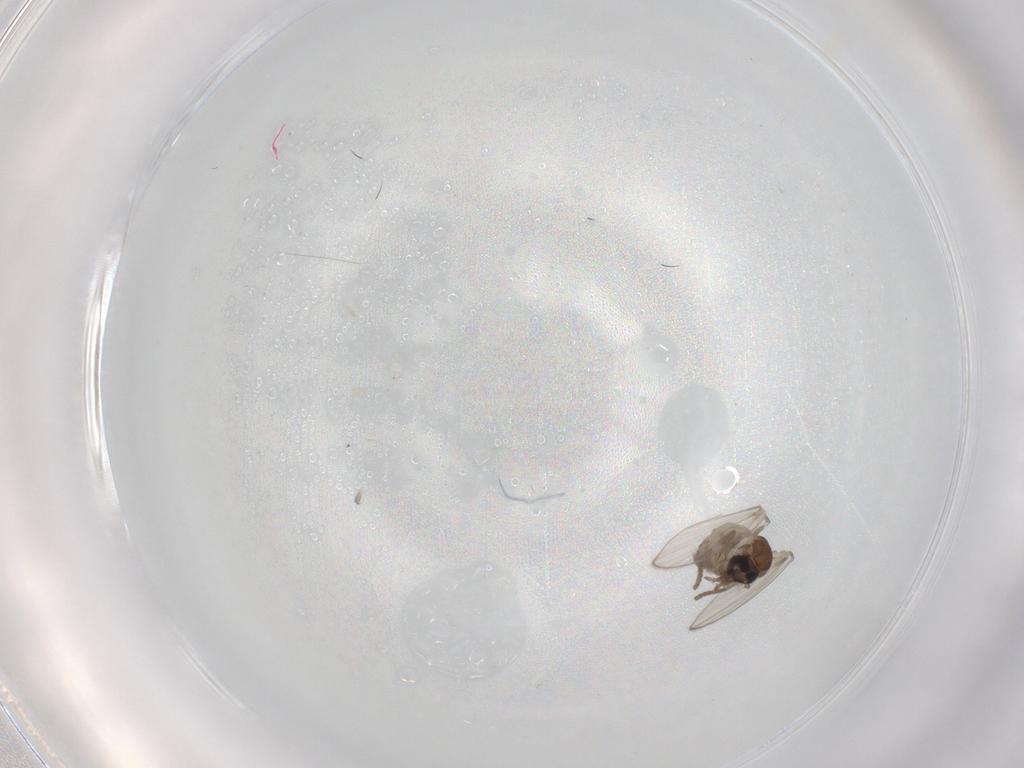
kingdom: Animalia
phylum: Arthropoda
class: Insecta
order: Diptera
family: Psychodidae
